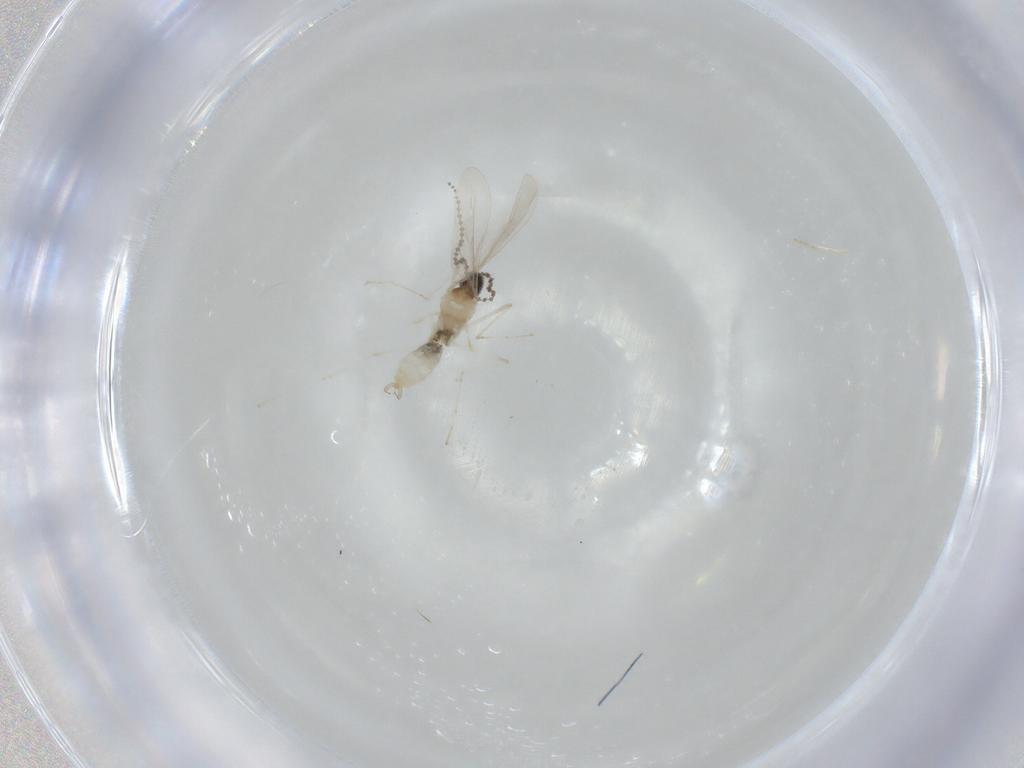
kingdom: Animalia
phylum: Arthropoda
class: Insecta
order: Diptera
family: Cecidomyiidae
